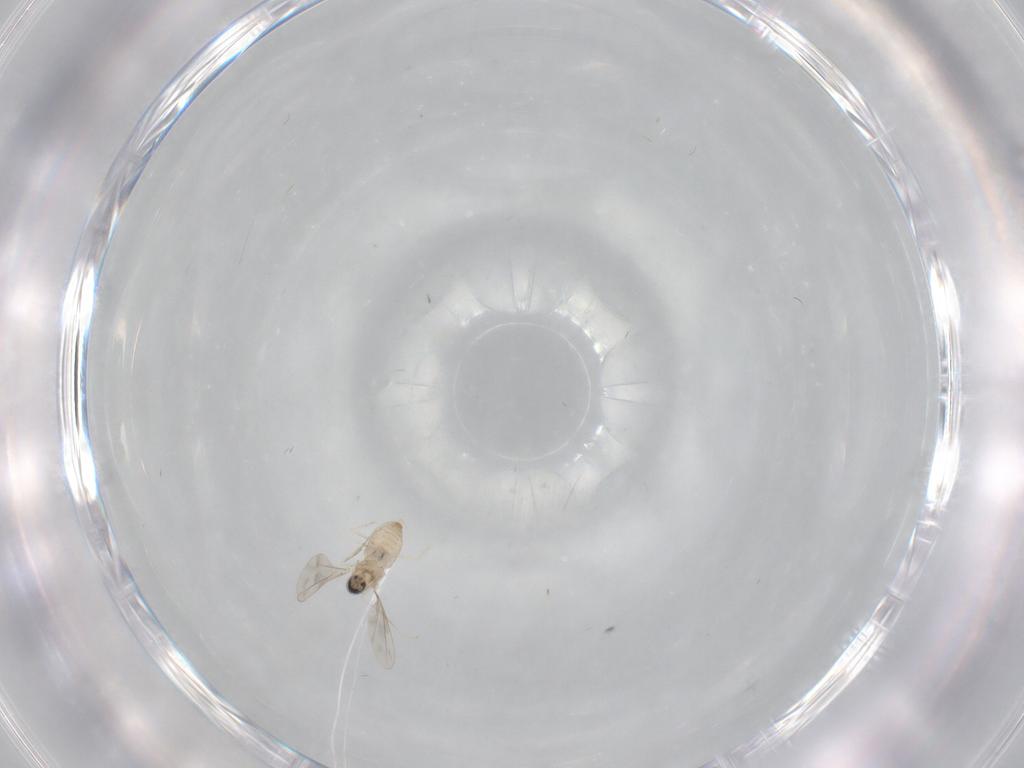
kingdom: Animalia
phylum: Arthropoda
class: Insecta
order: Diptera
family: Cecidomyiidae
